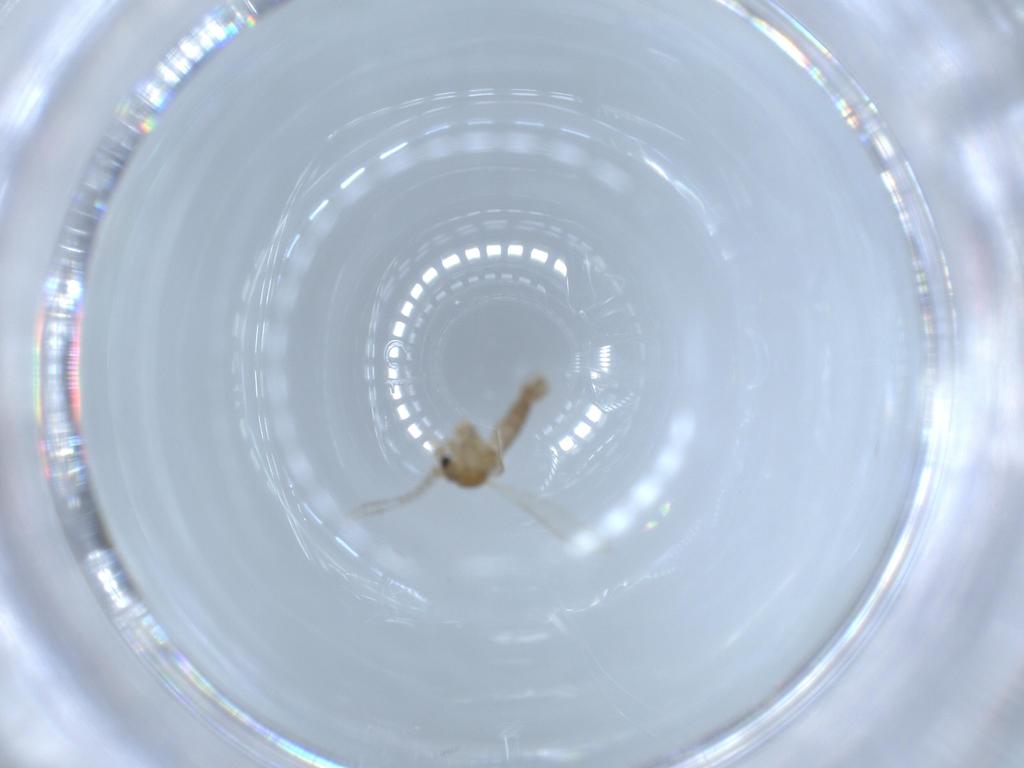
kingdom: Animalia
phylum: Arthropoda
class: Insecta
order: Diptera
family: Psychodidae
